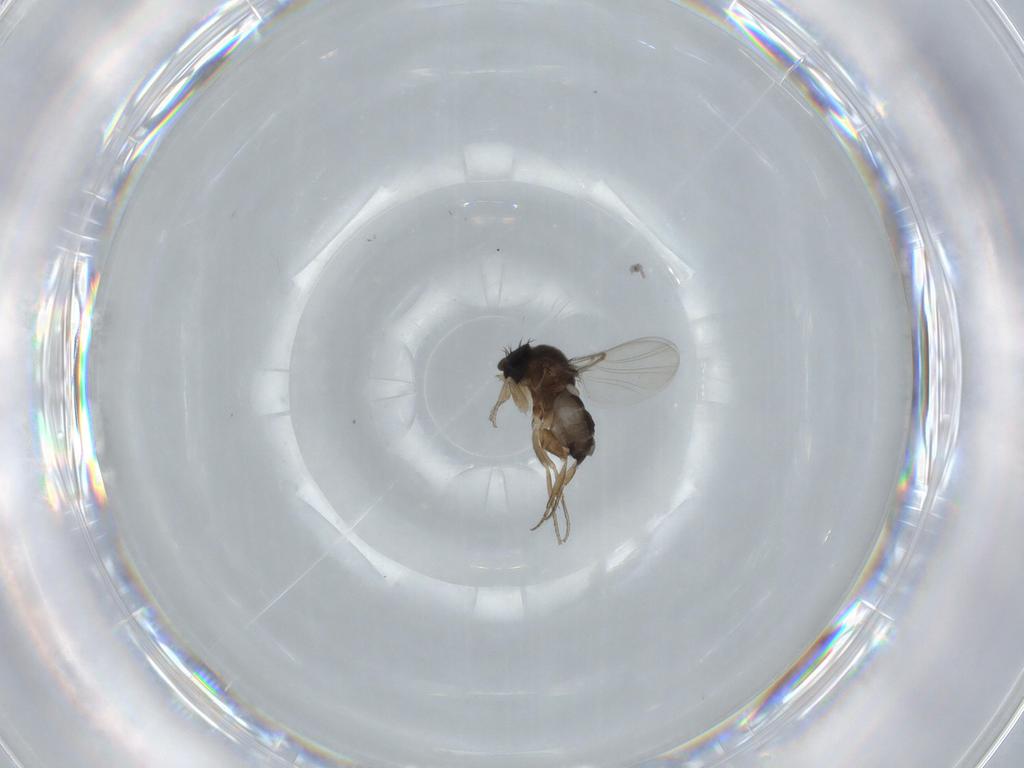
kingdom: Animalia
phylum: Arthropoda
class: Insecta
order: Diptera
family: Phoridae
